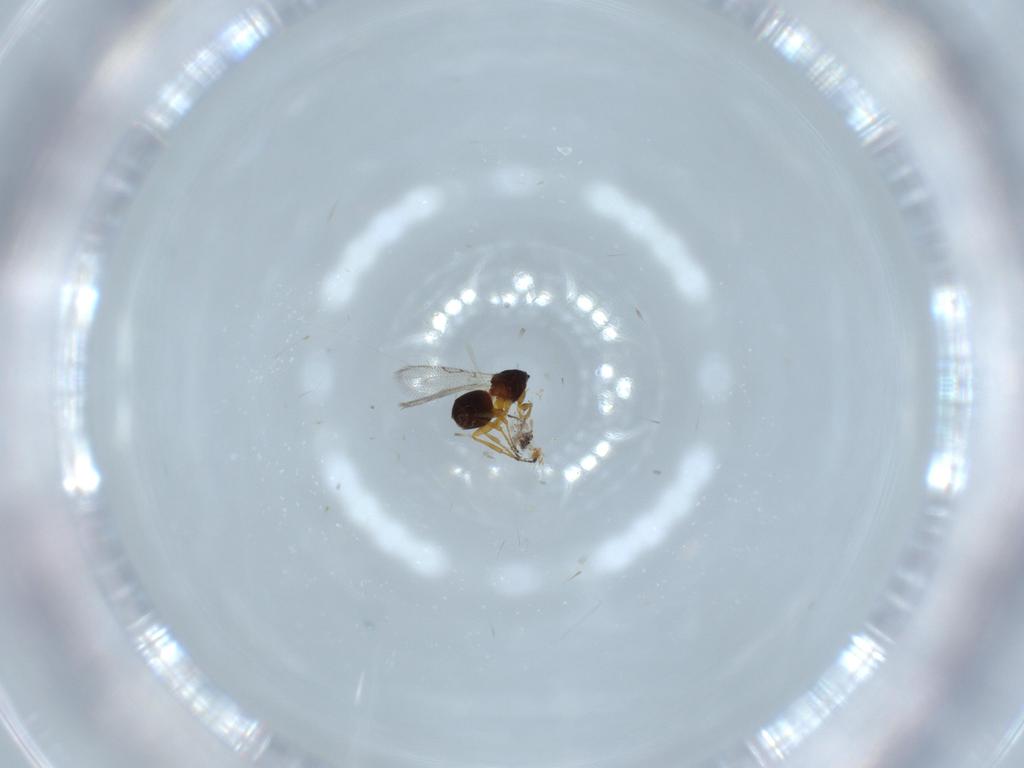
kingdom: Animalia
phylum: Arthropoda
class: Insecta
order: Hymenoptera
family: Figitidae
